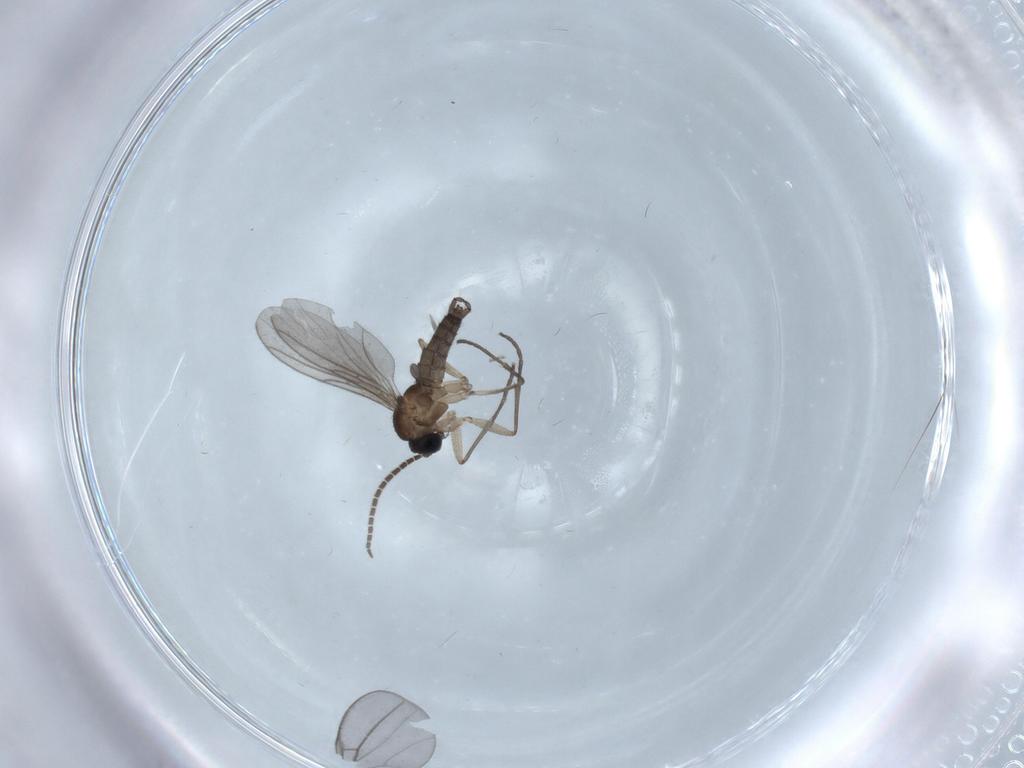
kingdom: Animalia
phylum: Arthropoda
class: Insecta
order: Diptera
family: Sciaridae
